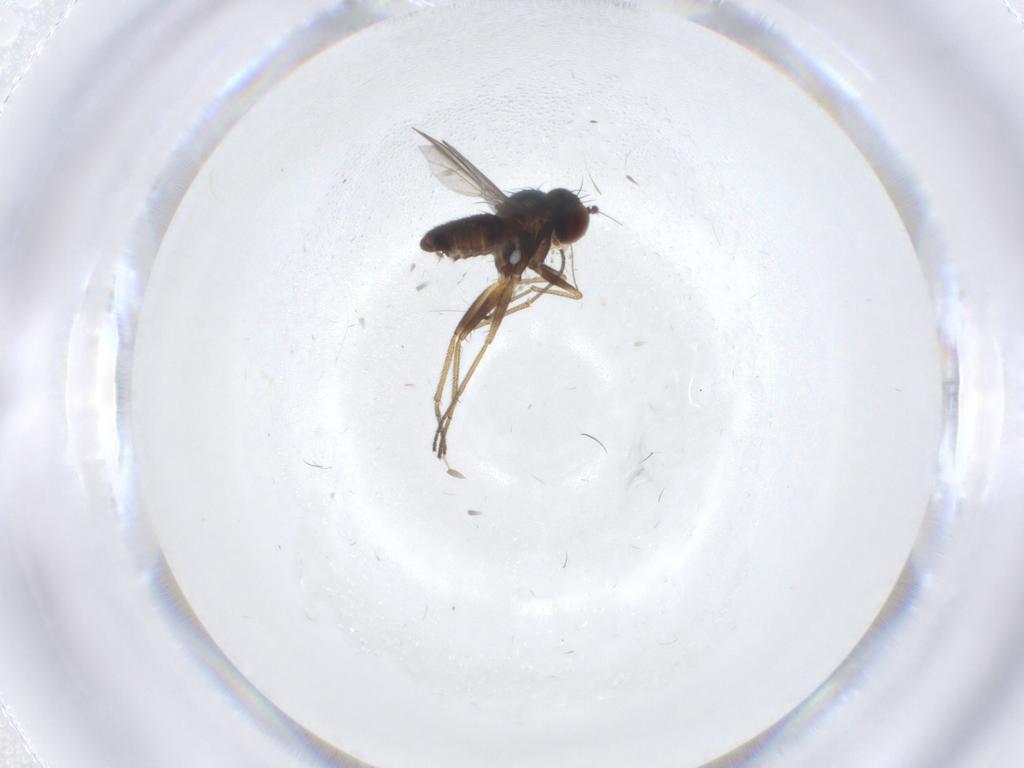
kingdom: Animalia
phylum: Arthropoda
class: Insecta
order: Diptera
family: Dolichopodidae
